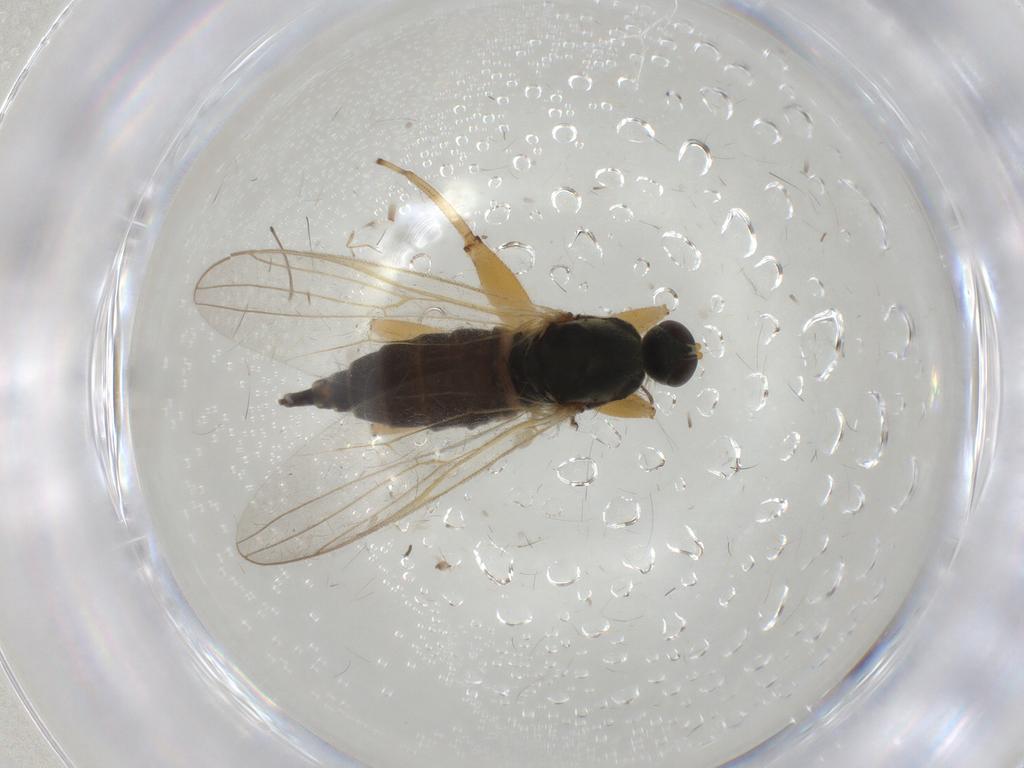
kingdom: Animalia
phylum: Arthropoda
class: Insecta
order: Diptera
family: Hybotidae
